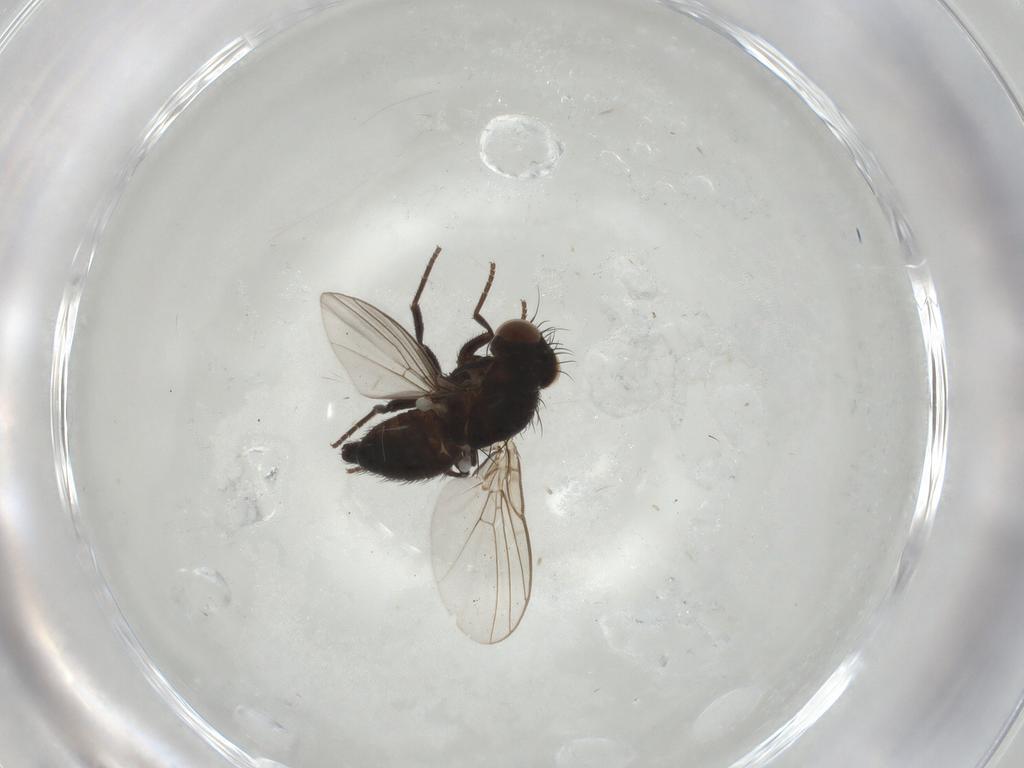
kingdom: Animalia
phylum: Arthropoda
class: Insecta
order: Diptera
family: Agromyzidae
